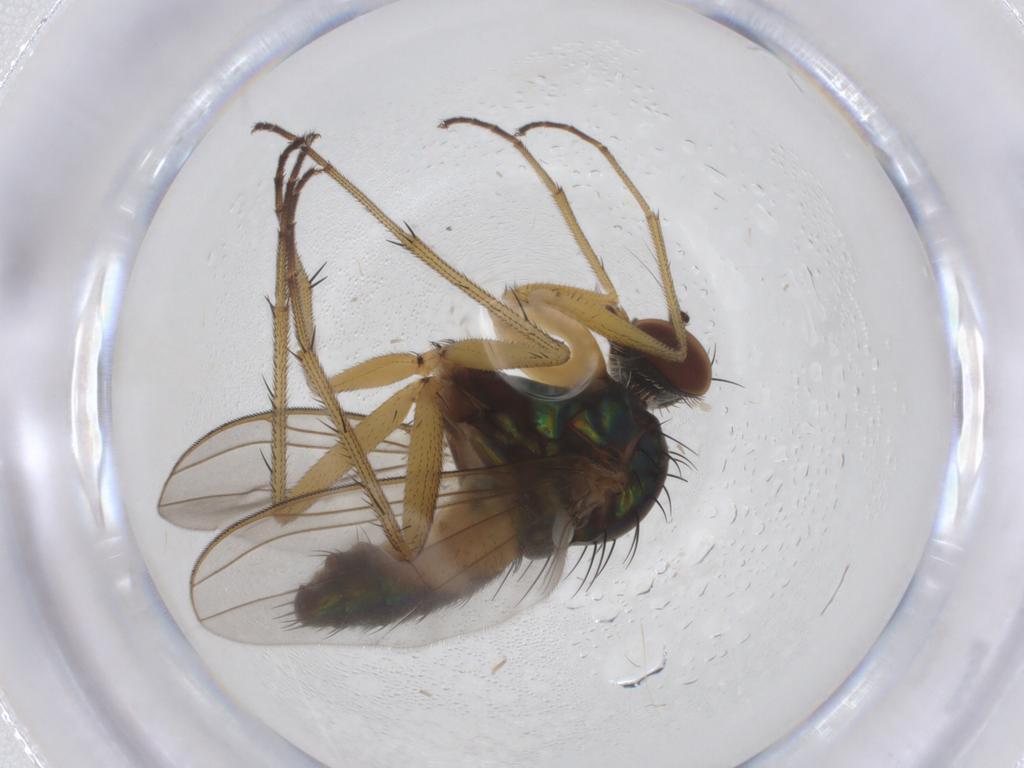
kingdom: Animalia
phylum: Arthropoda
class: Insecta
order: Diptera
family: Cecidomyiidae
